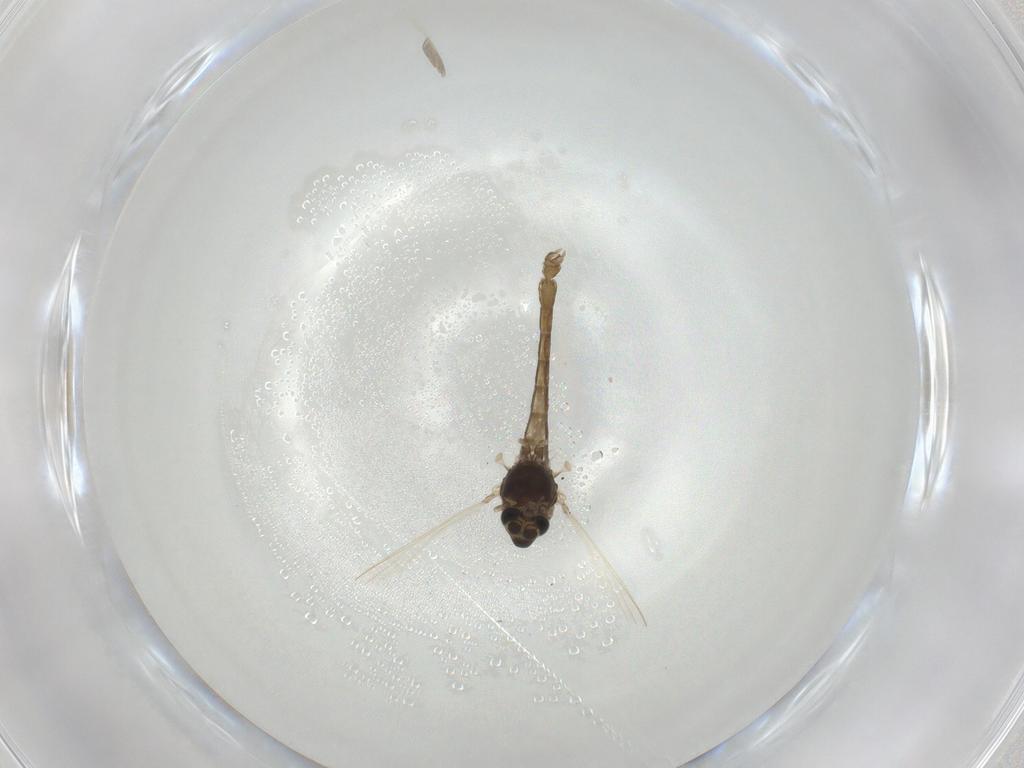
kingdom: Animalia
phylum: Arthropoda
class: Insecta
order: Diptera
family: Chironomidae
